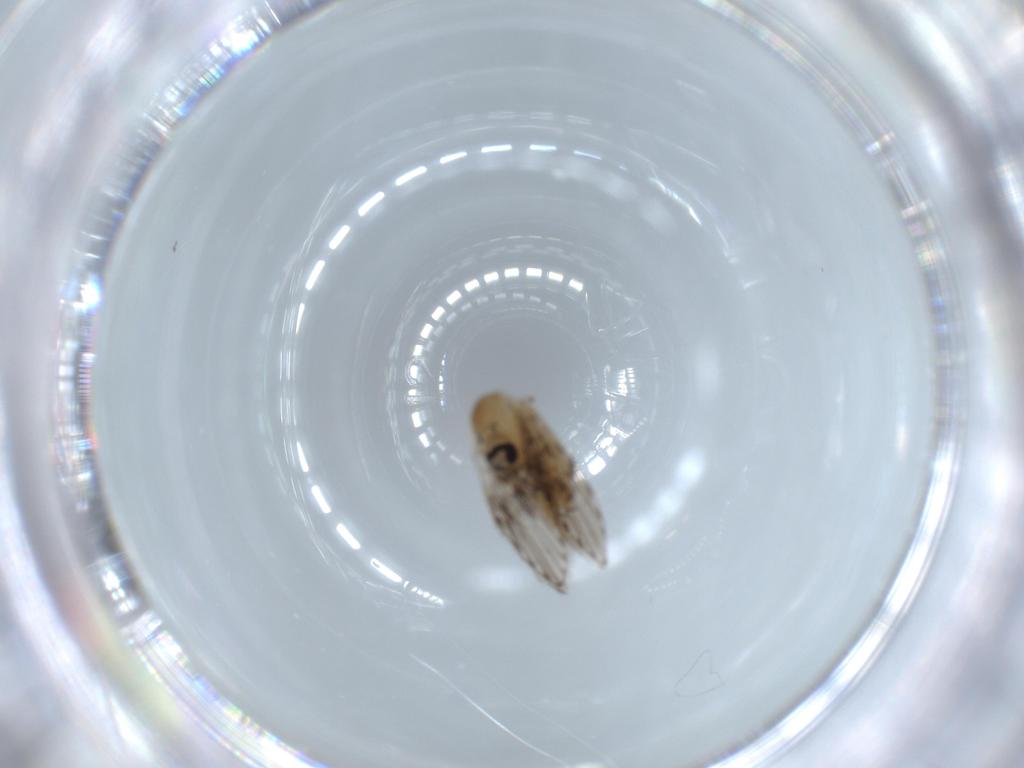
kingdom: Animalia
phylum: Arthropoda
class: Insecta
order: Diptera
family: Psychodidae
